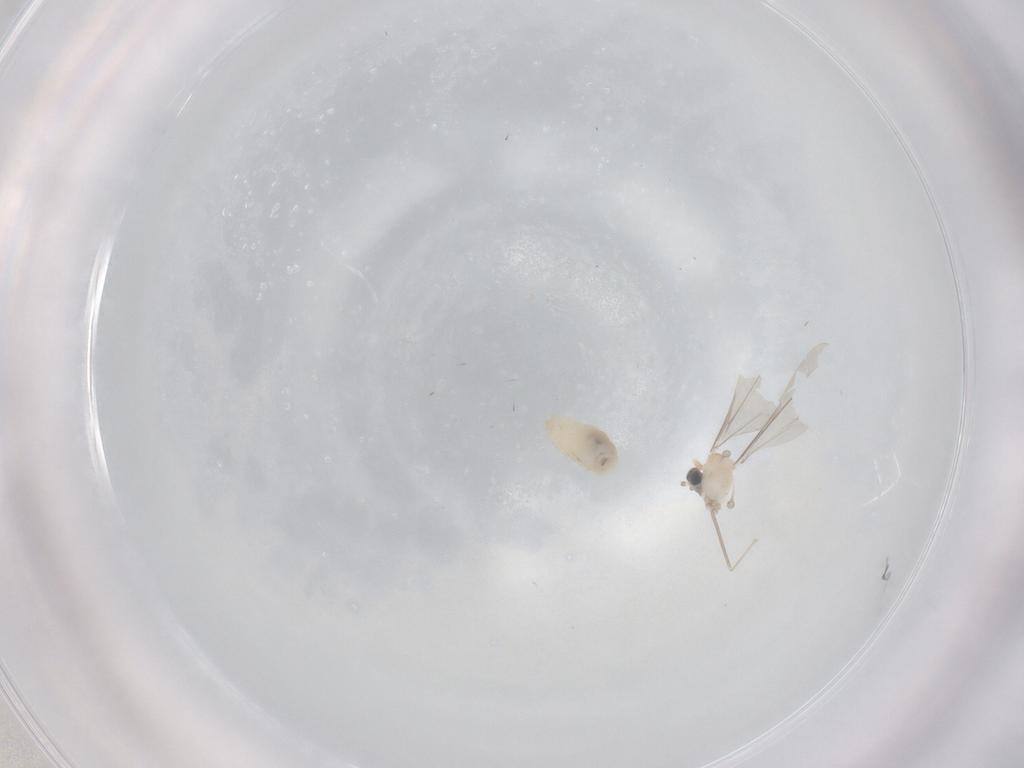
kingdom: Animalia
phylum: Arthropoda
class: Insecta
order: Diptera
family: Cecidomyiidae
